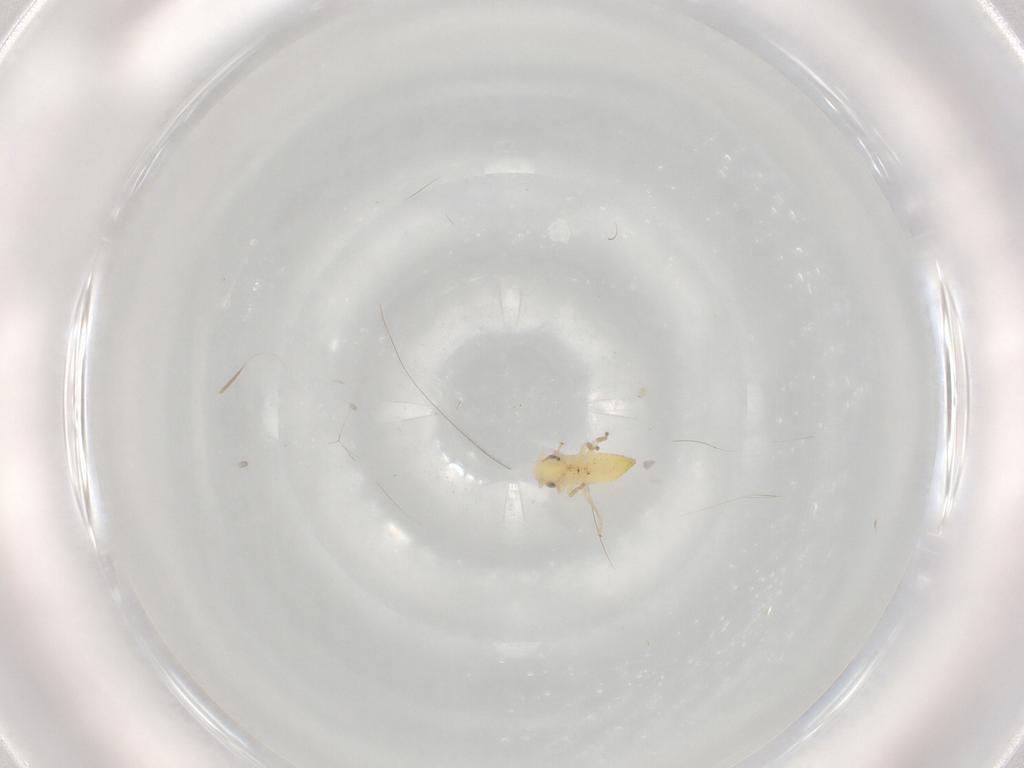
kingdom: Animalia
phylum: Arthropoda
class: Insecta
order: Hemiptera
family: Cicadellidae
